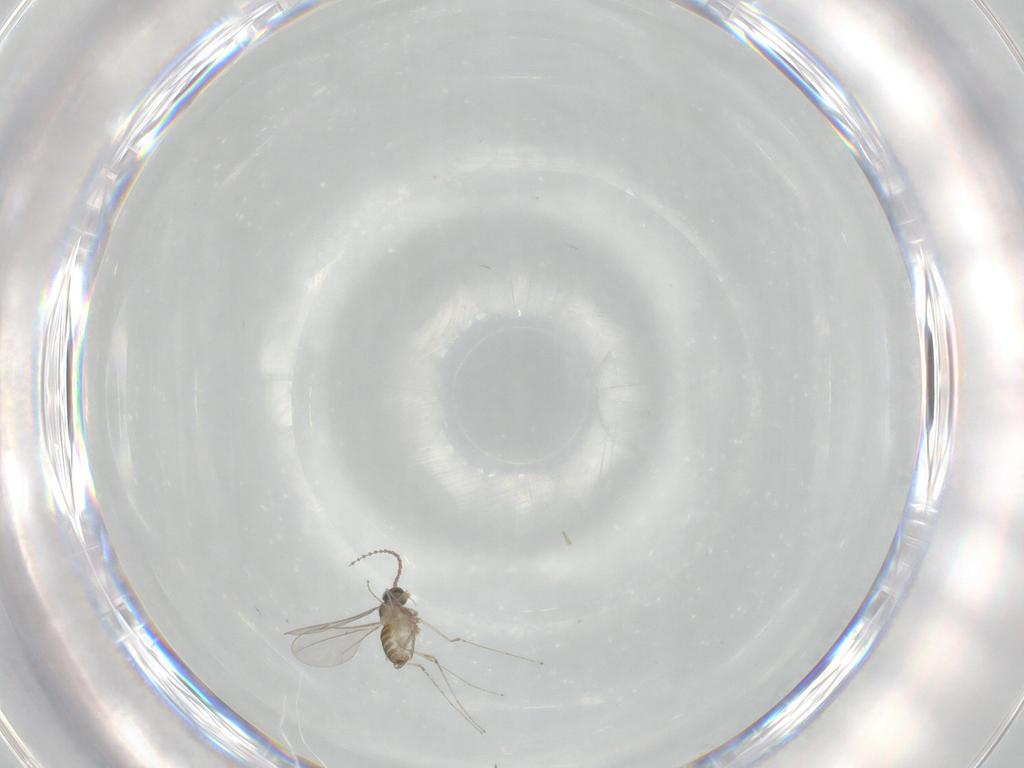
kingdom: Animalia
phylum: Arthropoda
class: Insecta
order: Diptera
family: Cecidomyiidae
